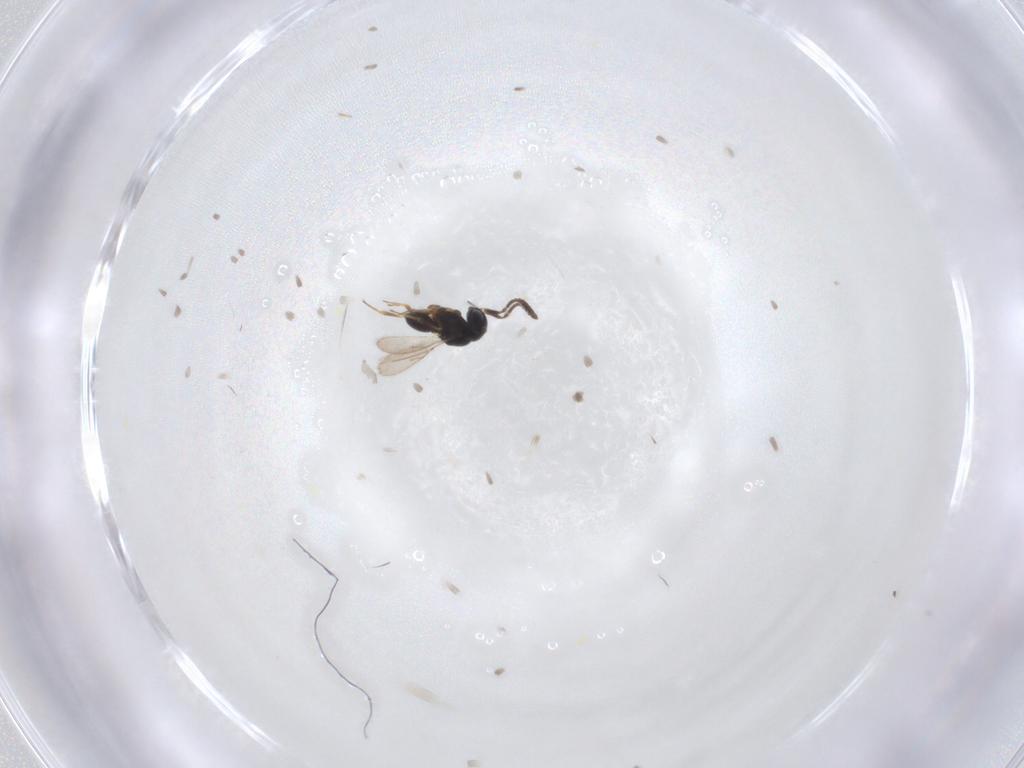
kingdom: Animalia
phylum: Arthropoda
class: Insecta
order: Hymenoptera
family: Scelionidae
